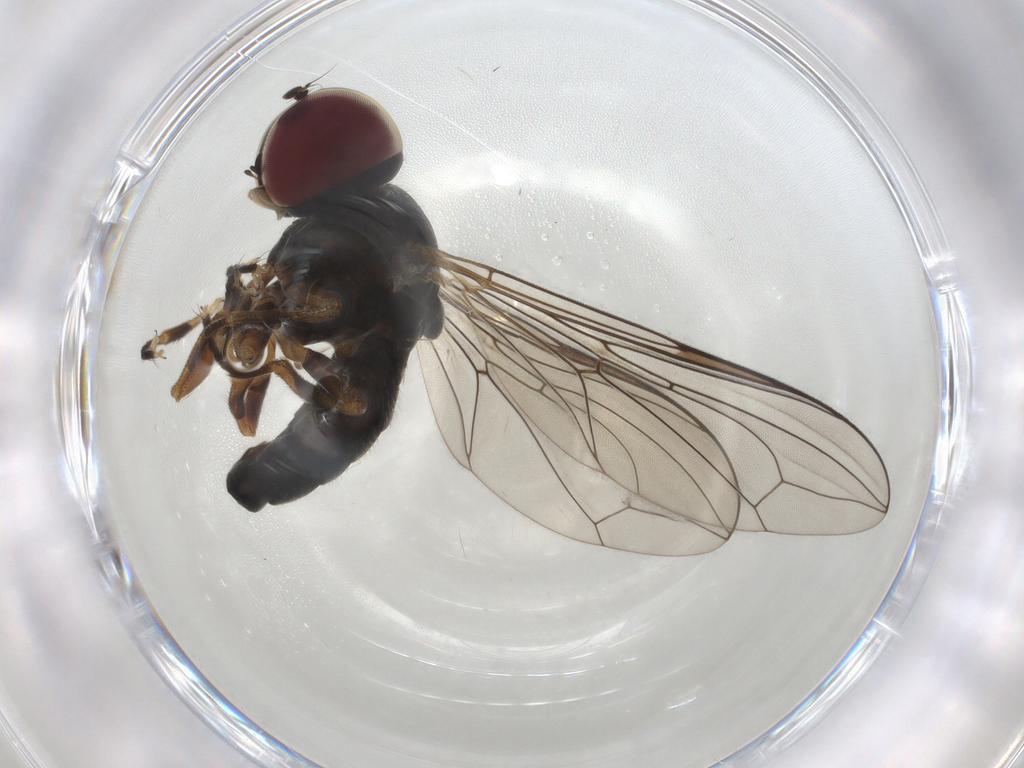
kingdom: Animalia
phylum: Arthropoda
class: Insecta
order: Diptera
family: Pipunculidae
